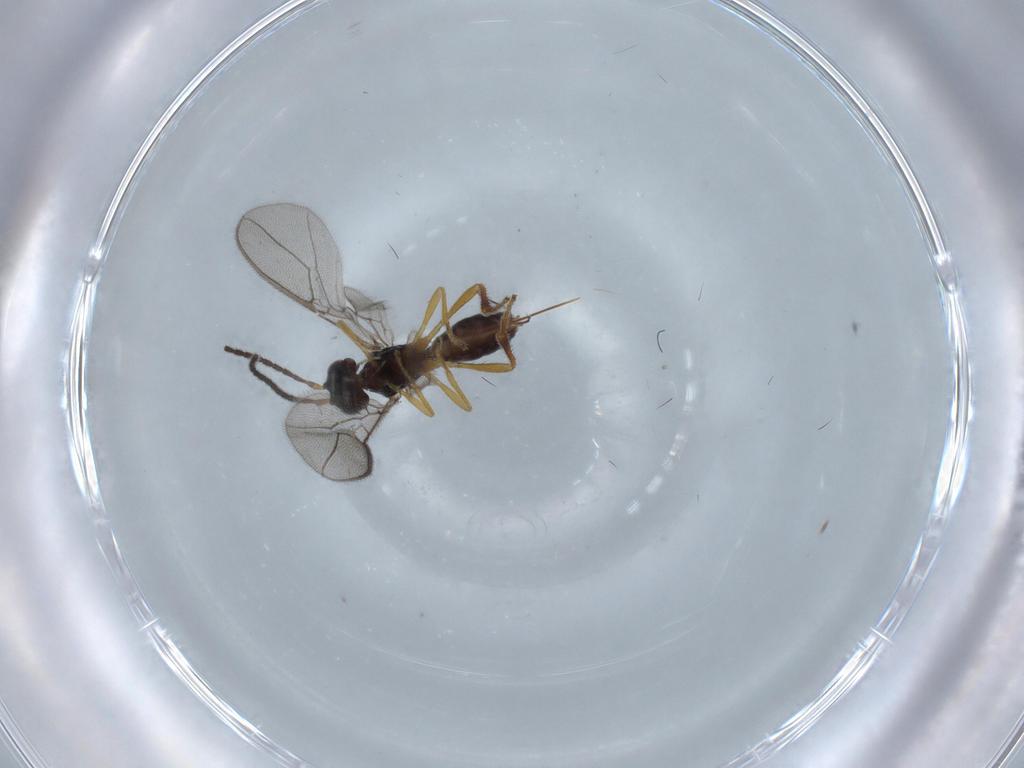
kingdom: Animalia
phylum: Arthropoda
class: Insecta
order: Hymenoptera
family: Braconidae
